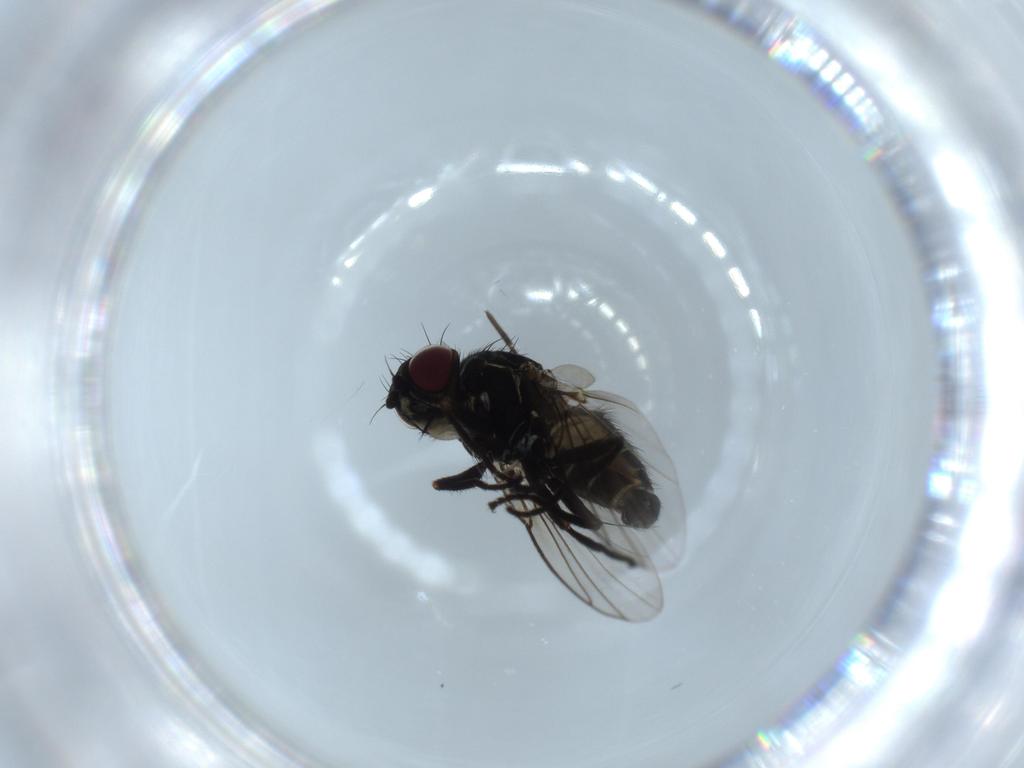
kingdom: Animalia
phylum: Arthropoda
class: Insecta
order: Diptera
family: Agromyzidae
